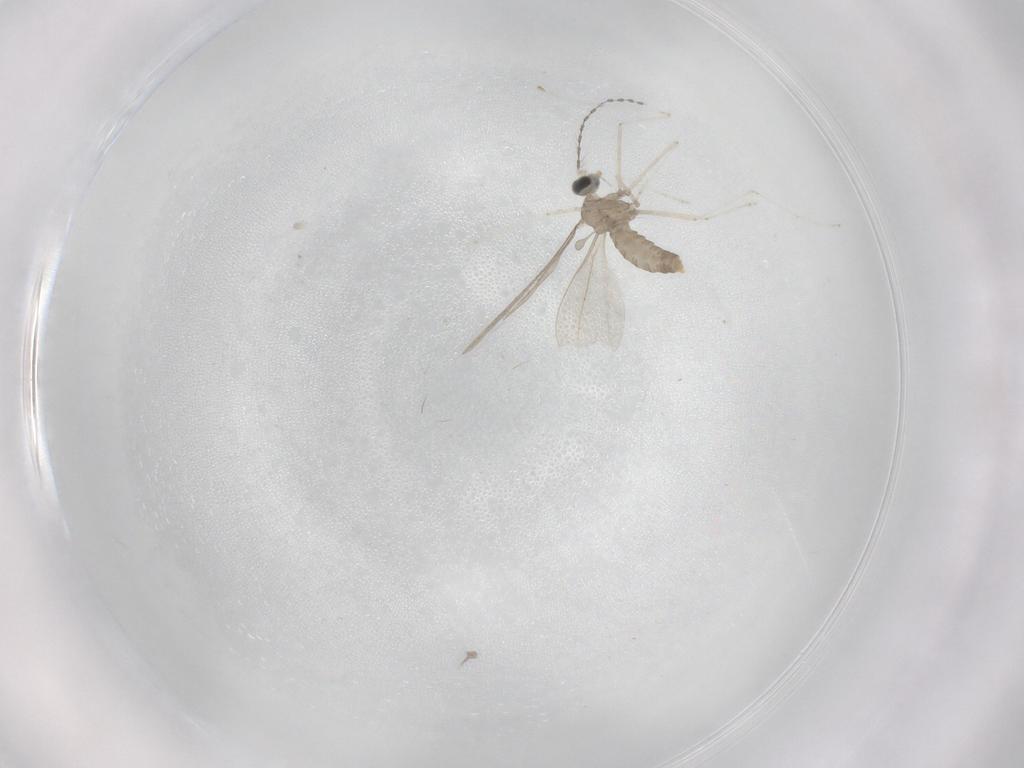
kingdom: Animalia
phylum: Arthropoda
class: Insecta
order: Diptera
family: Cecidomyiidae
